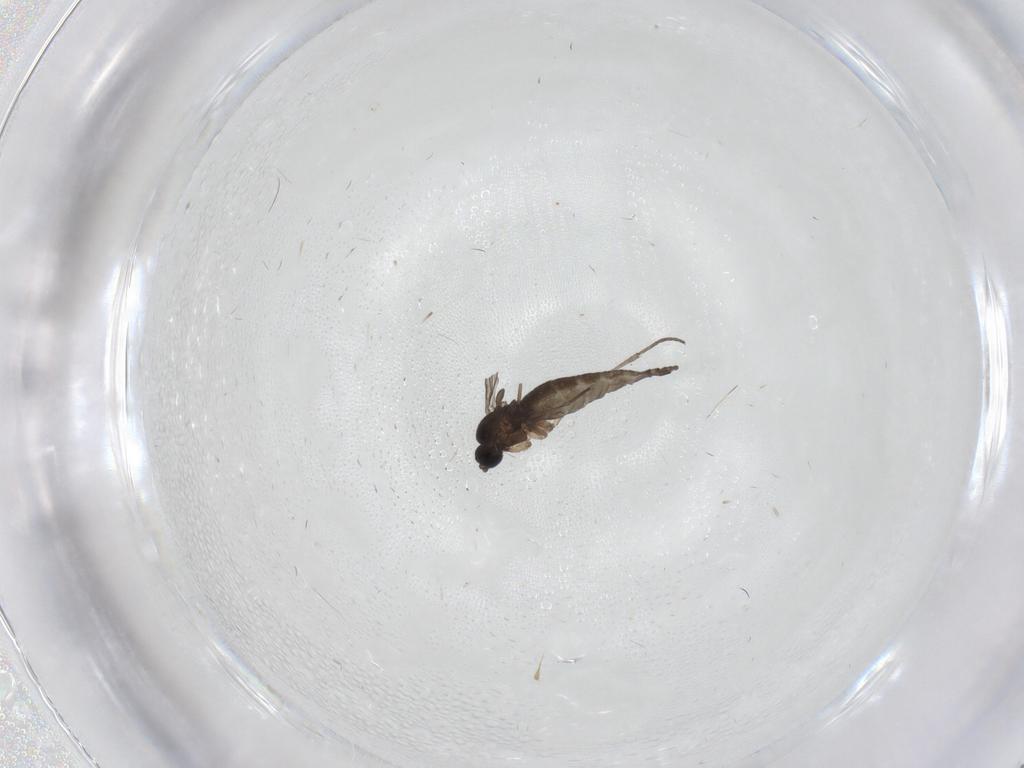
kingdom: Animalia
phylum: Arthropoda
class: Insecta
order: Diptera
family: Sciaridae
